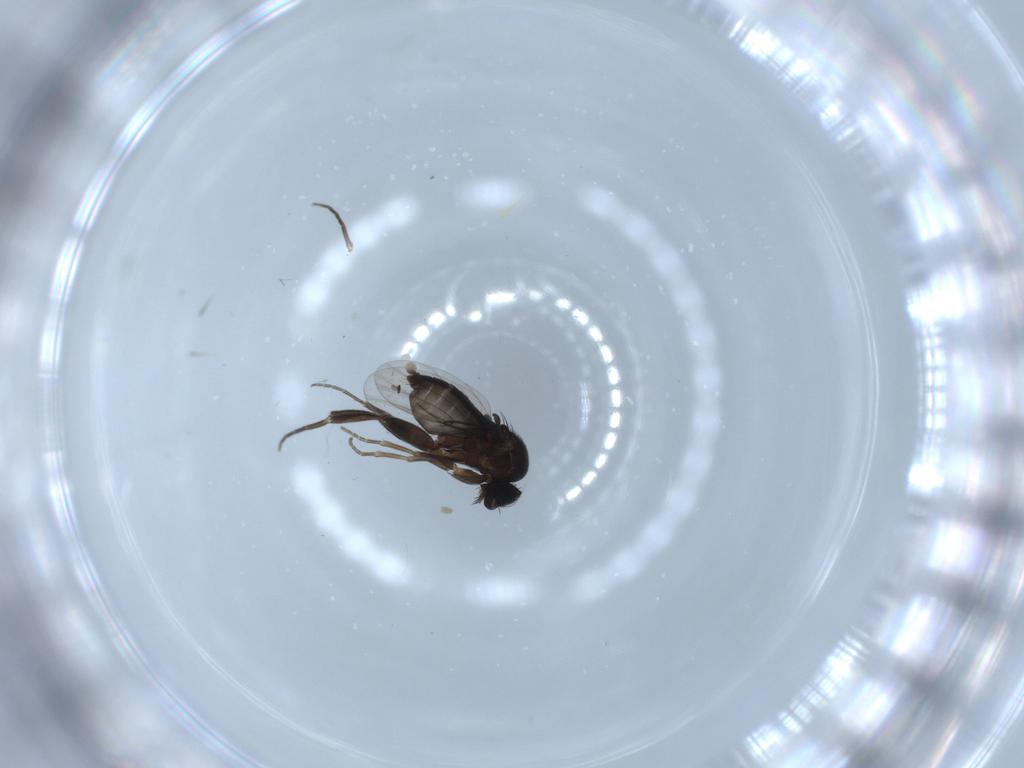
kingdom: Animalia
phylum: Arthropoda
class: Insecta
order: Diptera
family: Phoridae
